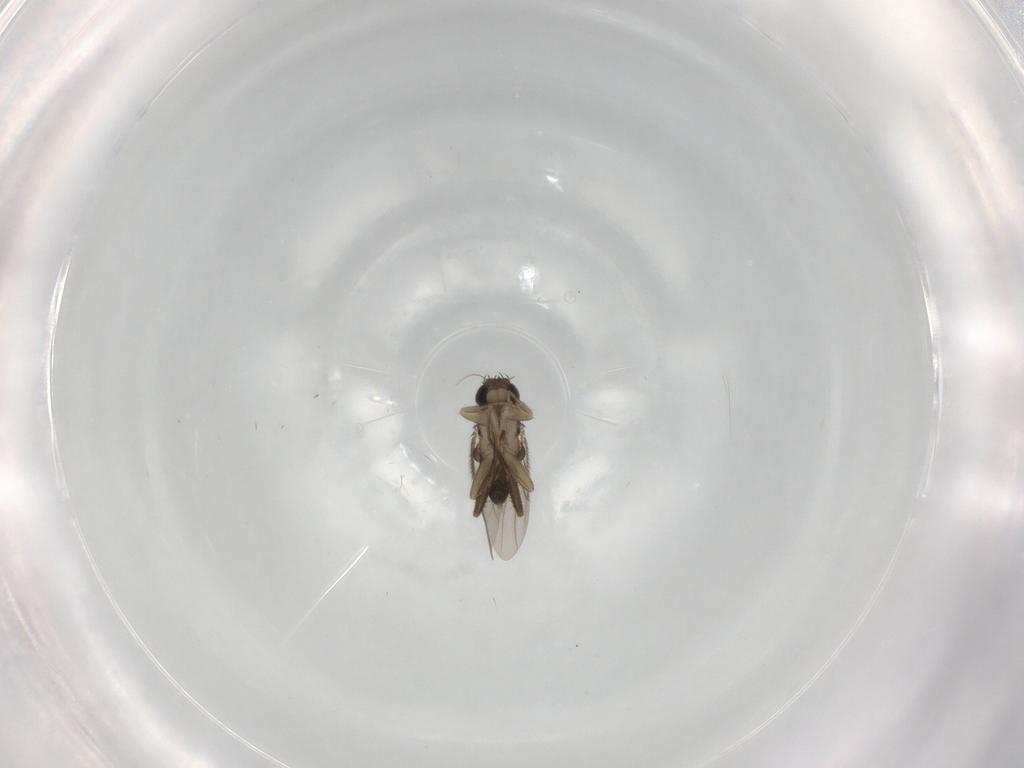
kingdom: Animalia
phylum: Arthropoda
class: Insecta
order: Diptera
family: Phoridae
